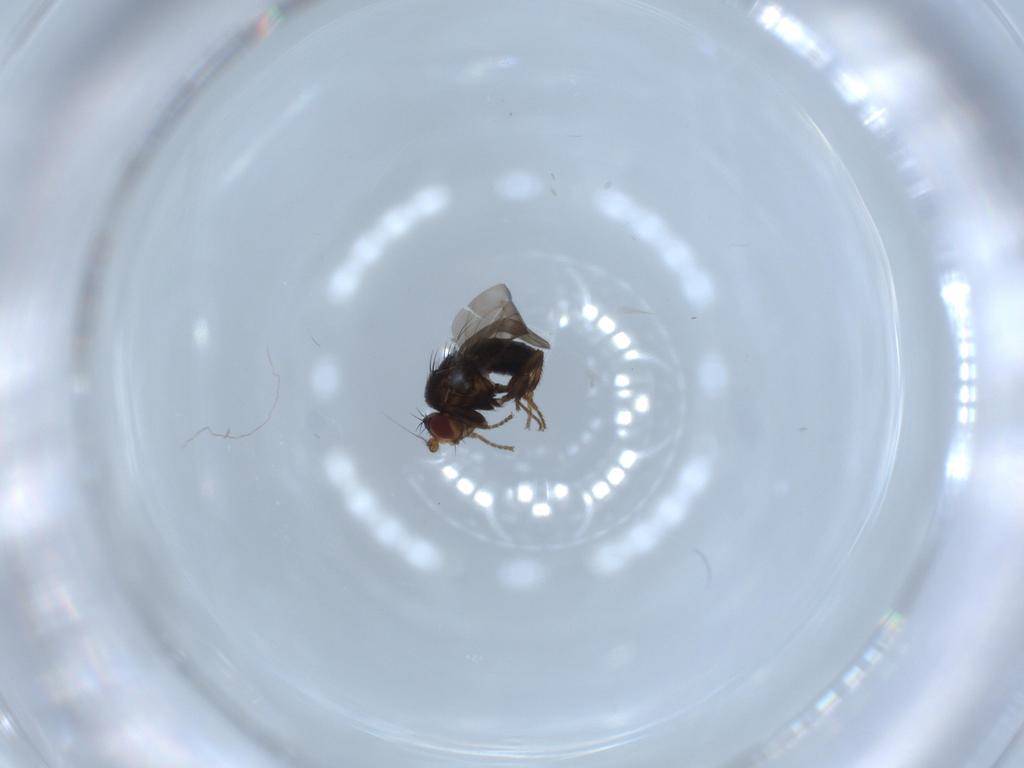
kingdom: Animalia
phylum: Arthropoda
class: Insecta
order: Diptera
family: Sphaeroceridae
